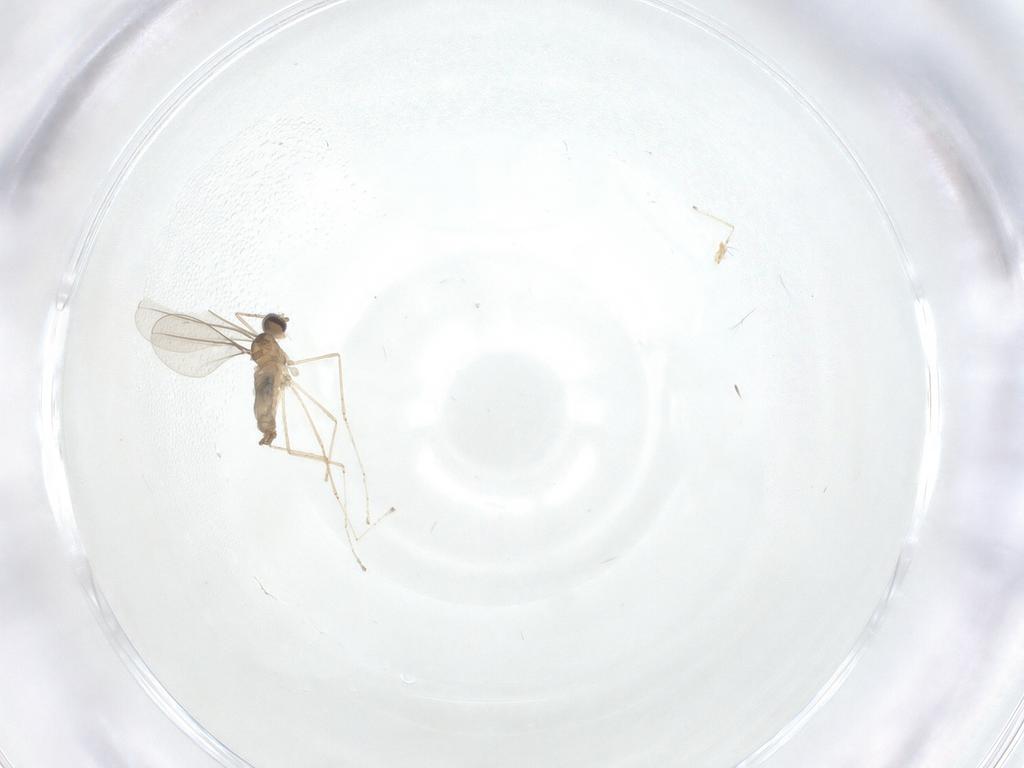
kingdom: Animalia
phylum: Arthropoda
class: Insecta
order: Diptera
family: Cecidomyiidae
